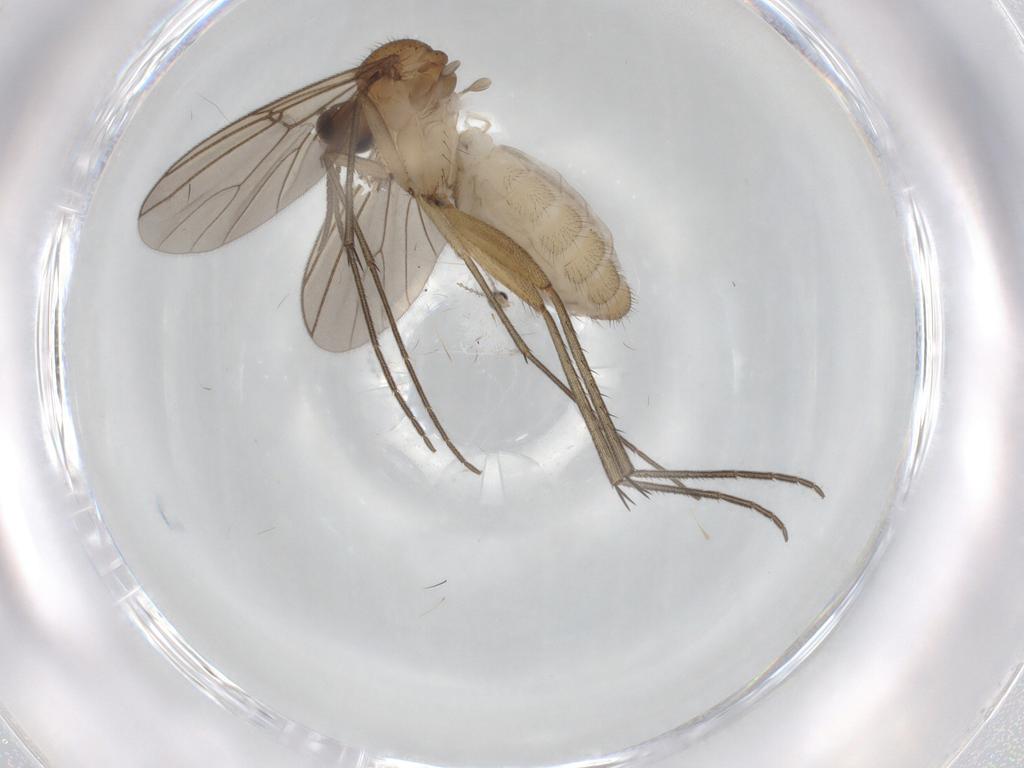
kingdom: Animalia
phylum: Arthropoda
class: Insecta
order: Diptera
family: Mycetophilidae
